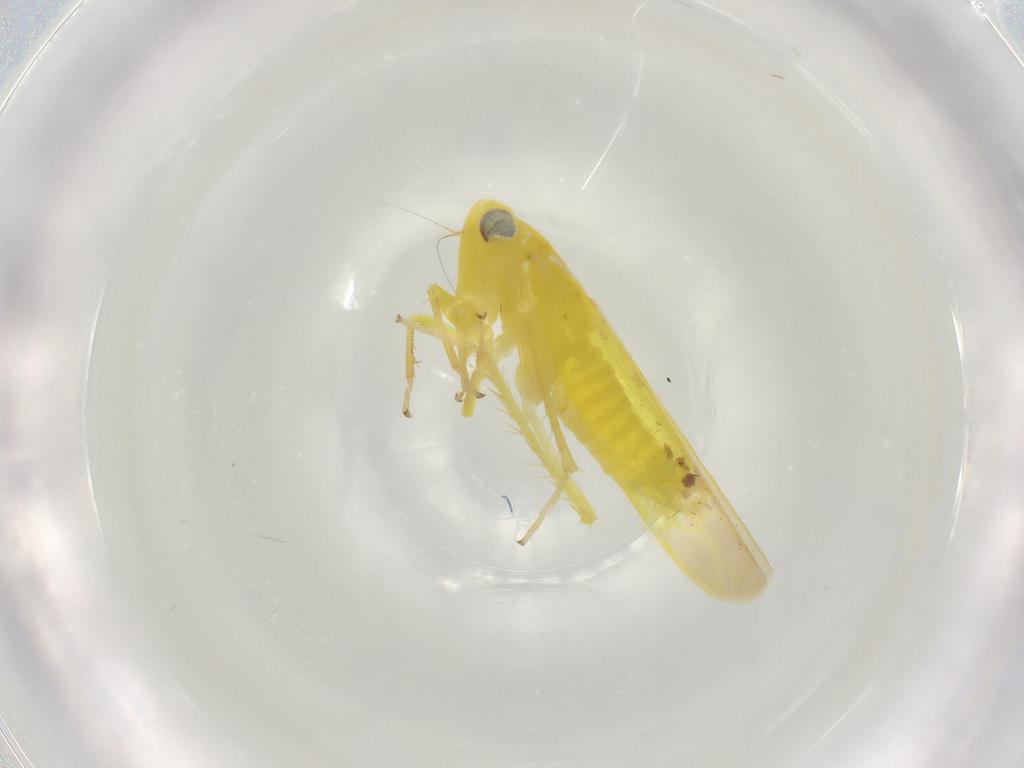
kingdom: Animalia
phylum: Arthropoda
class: Insecta
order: Hemiptera
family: Cicadellidae
